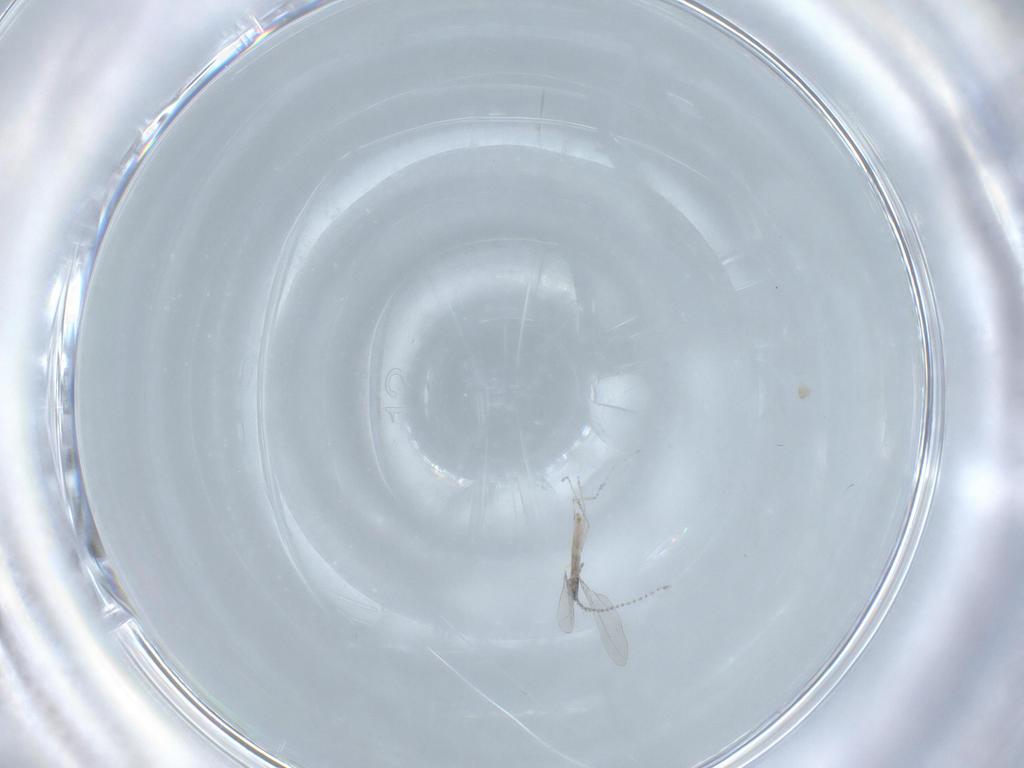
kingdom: Animalia
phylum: Arthropoda
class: Insecta
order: Diptera
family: Cecidomyiidae
